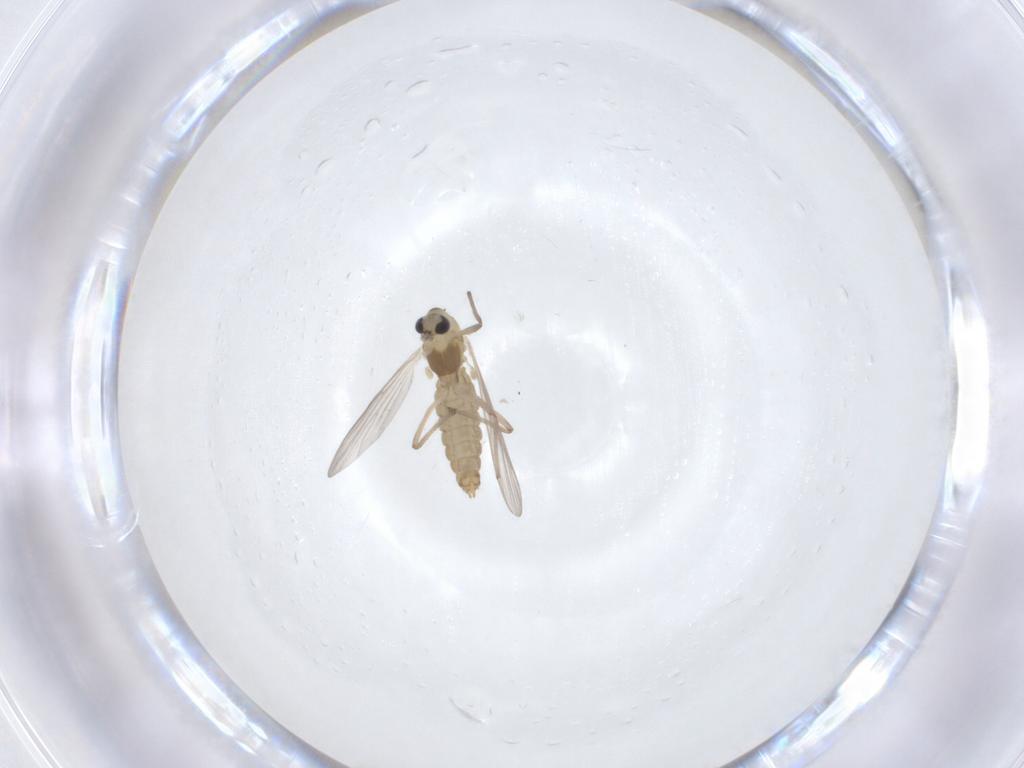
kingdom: Animalia
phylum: Arthropoda
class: Insecta
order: Diptera
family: Chironomidae
